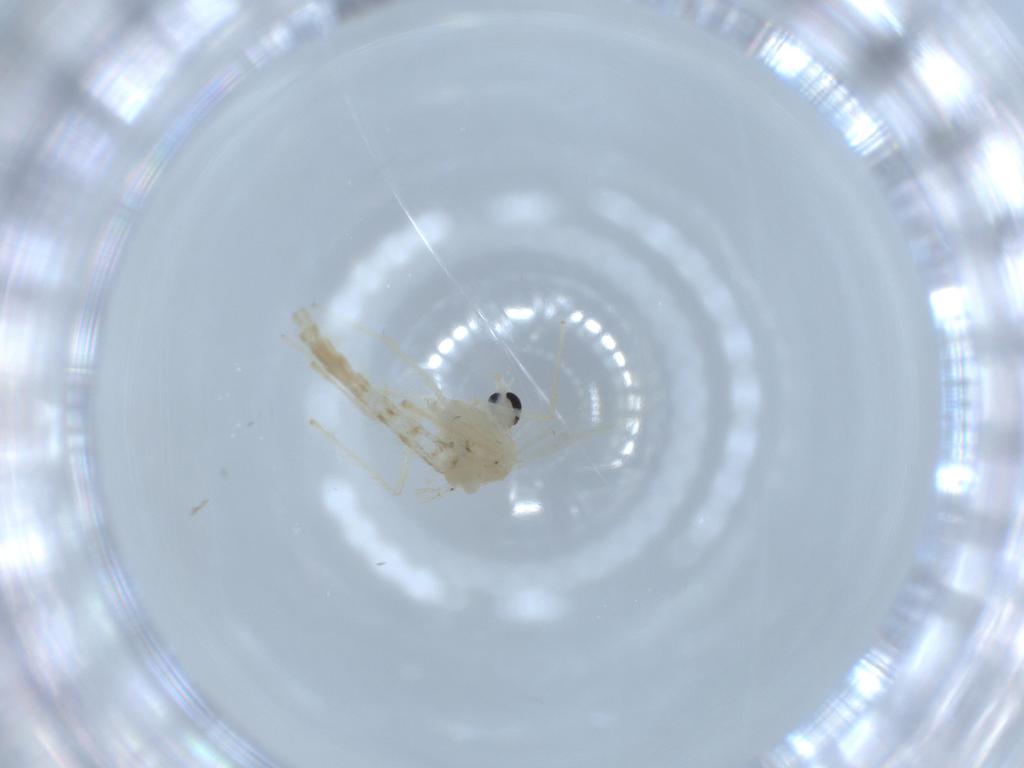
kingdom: Animalia
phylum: Arthropoda
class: Insecta
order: Diptera
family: Chironomidae
